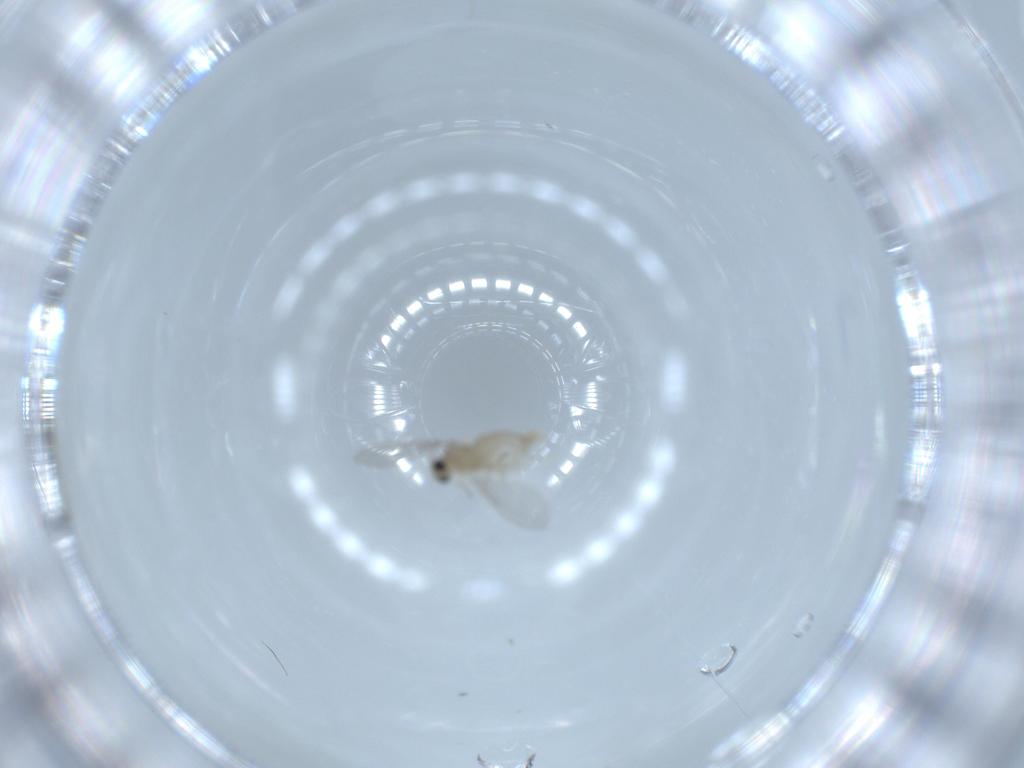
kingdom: Animalia
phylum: Arthropoda
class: Insecta
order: Diptera
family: Cecidomyiidae
